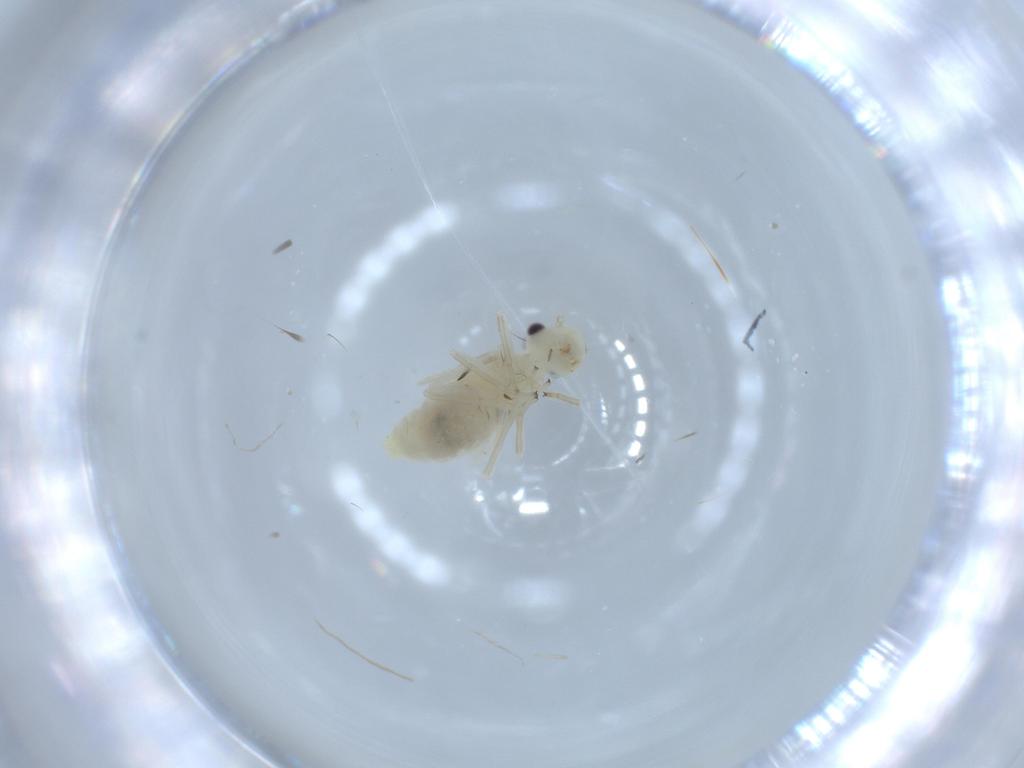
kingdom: Animalia
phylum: Arthropoda
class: Insecta
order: Psocodea
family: Caeciliusidae
